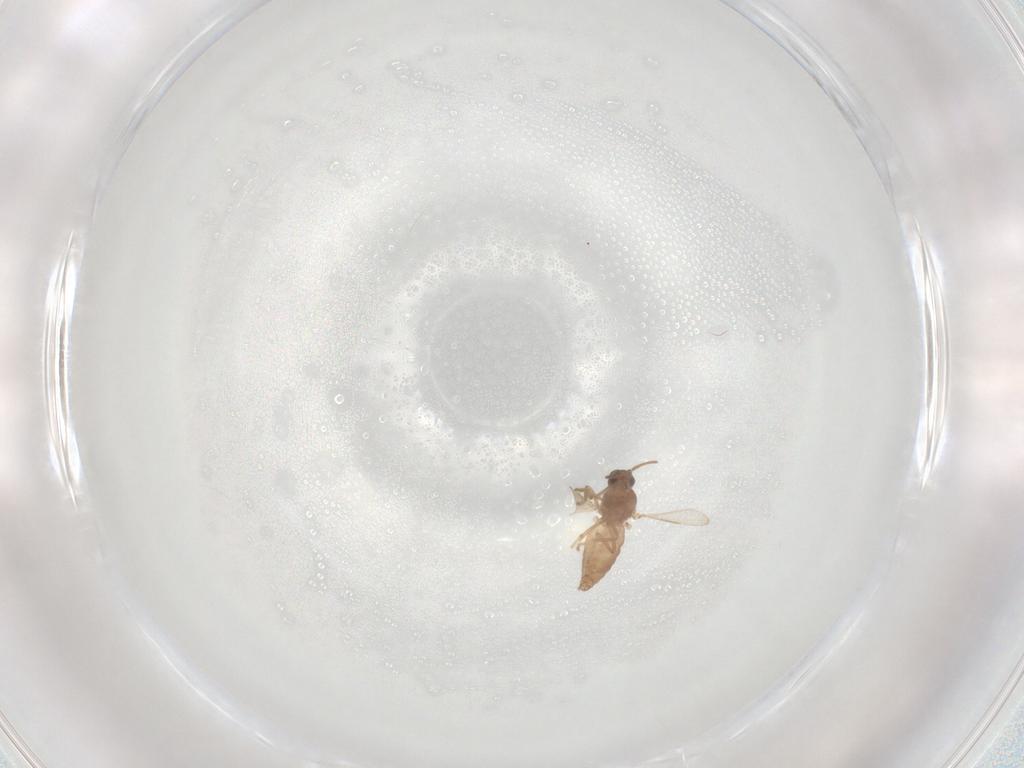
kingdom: Animalia
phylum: Arthropoda
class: Insecta
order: Diptera
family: Ceratopogonidae
